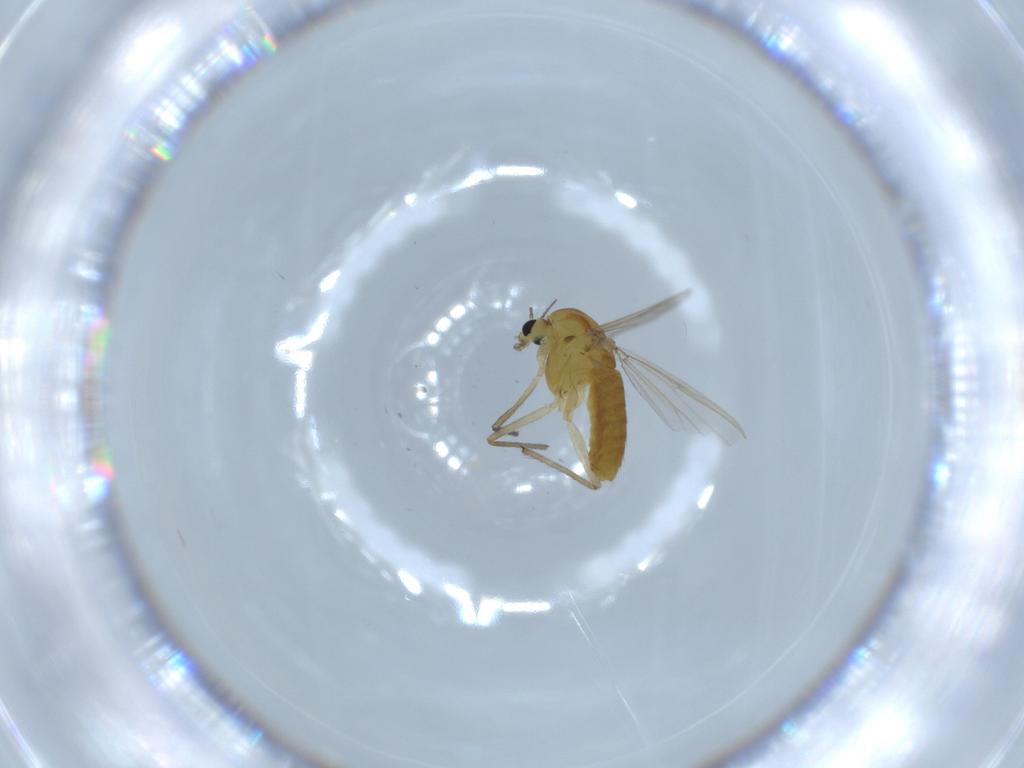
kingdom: Animalia
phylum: Arthropoda
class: Insecta
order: Diptera
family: Chironomidae
